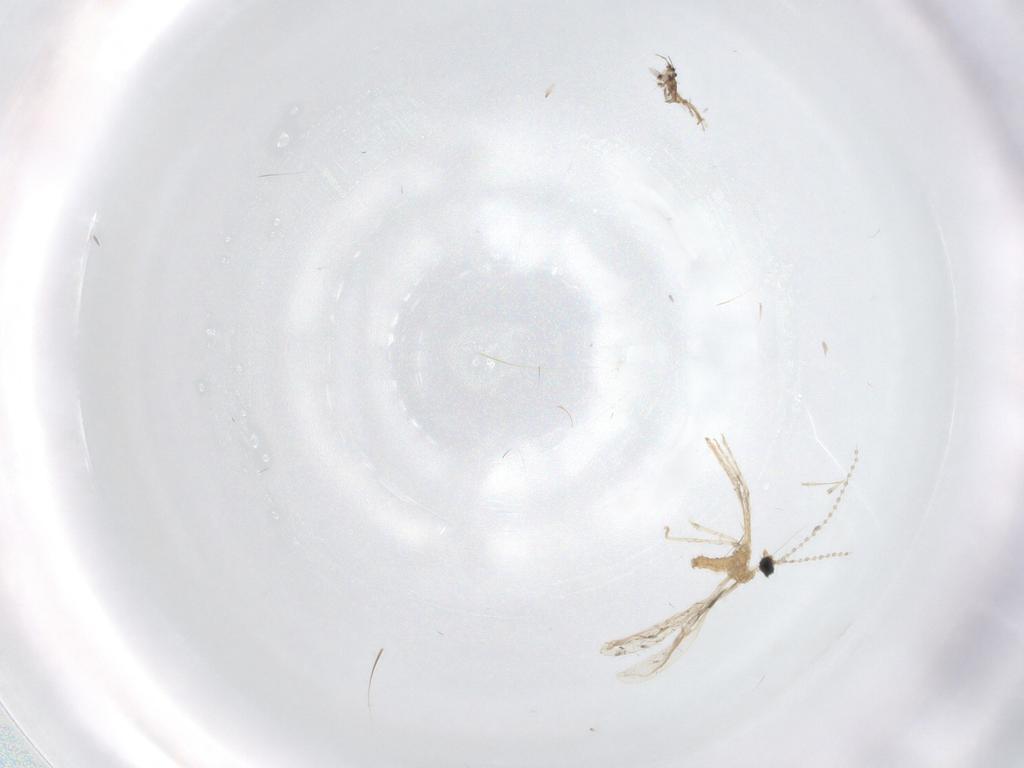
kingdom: Animalia
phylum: Arthropoda
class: Insecta
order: Diptera
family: Cecidomyiidae
